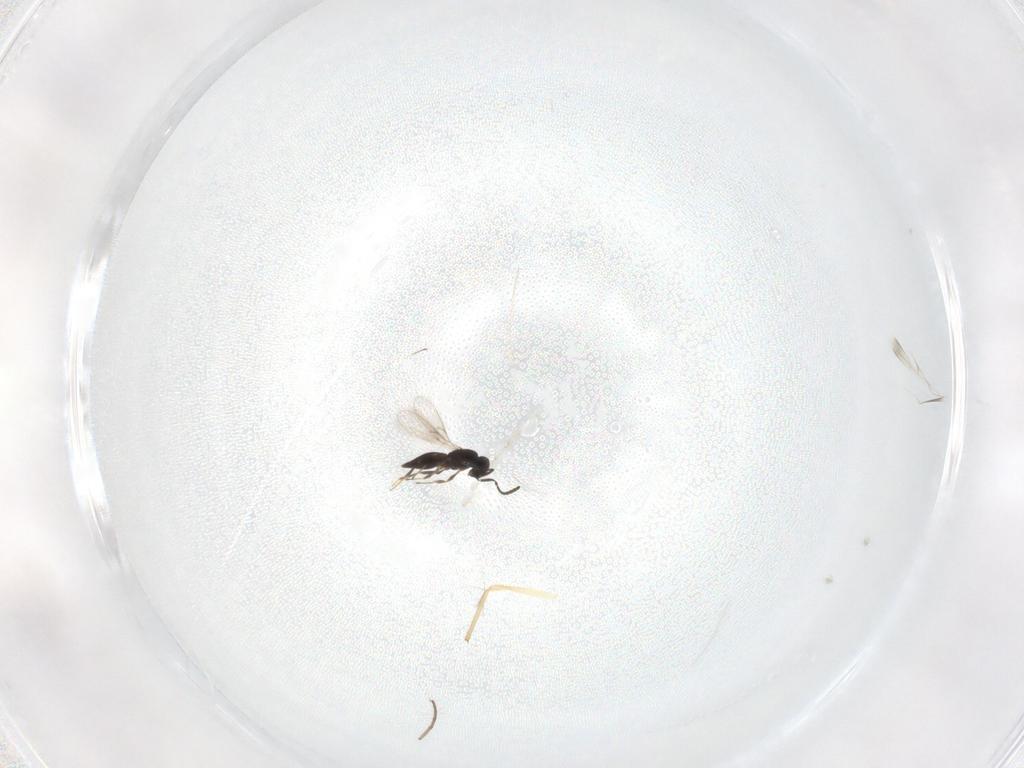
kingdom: Animalia
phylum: Arthropoda
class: Insecta
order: Hymenoptera
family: Scelionidae
